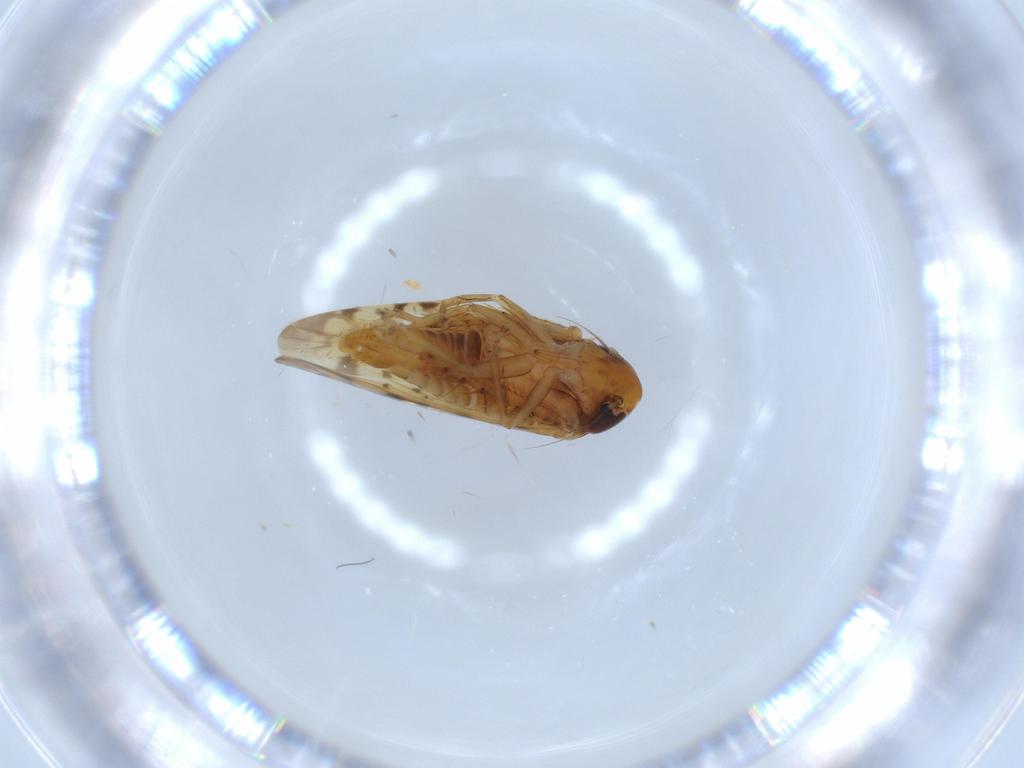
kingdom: Animalia
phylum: Arthropoda
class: Insecta
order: Hemiptera
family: Cicadellidae
